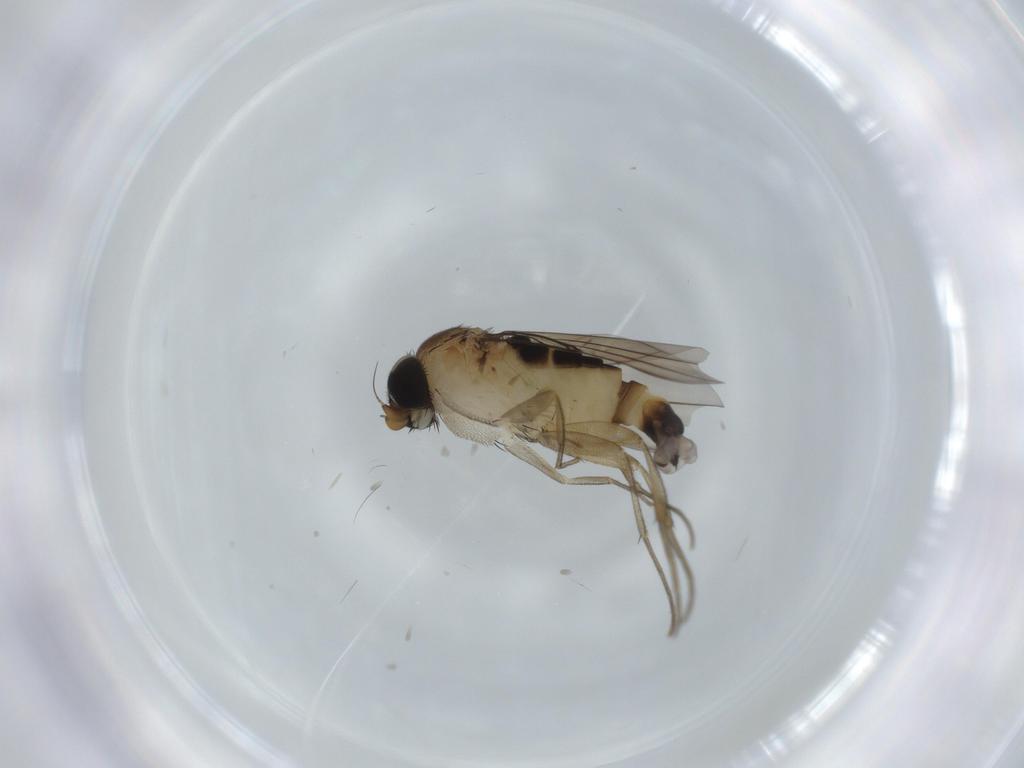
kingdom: Animalia
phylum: Arthropoda
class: Insecta
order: Diptera
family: Phoridae
